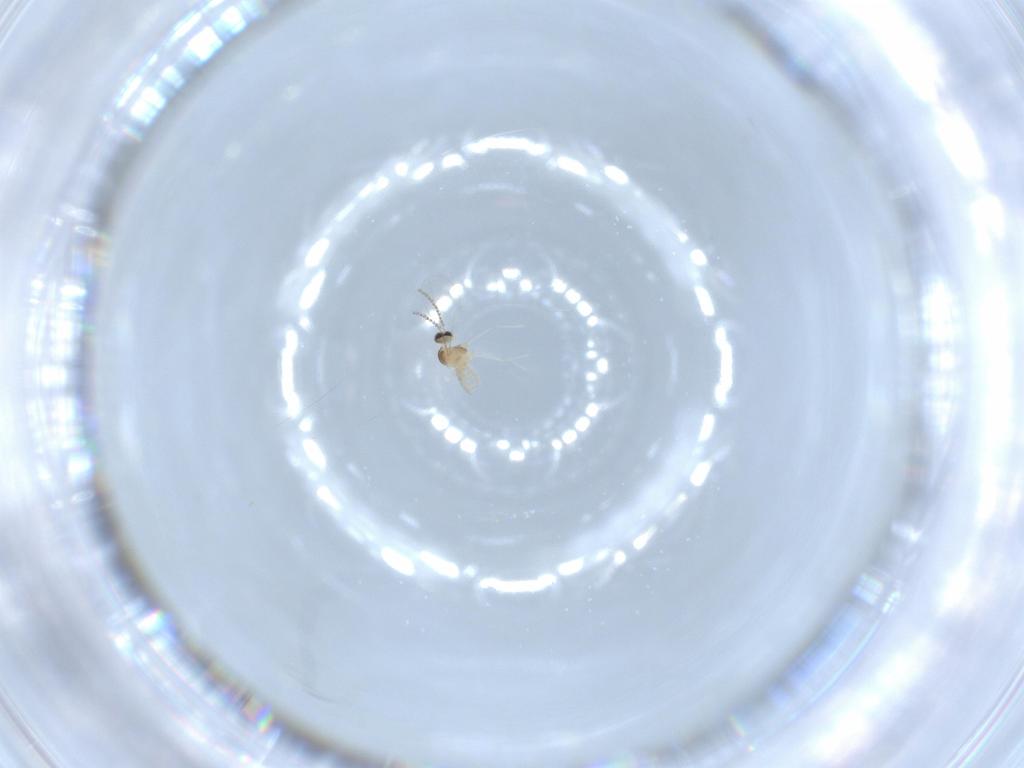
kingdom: Animalia
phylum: Arthropoda
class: Insecta
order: Diptera
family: Cecidomyiidae
